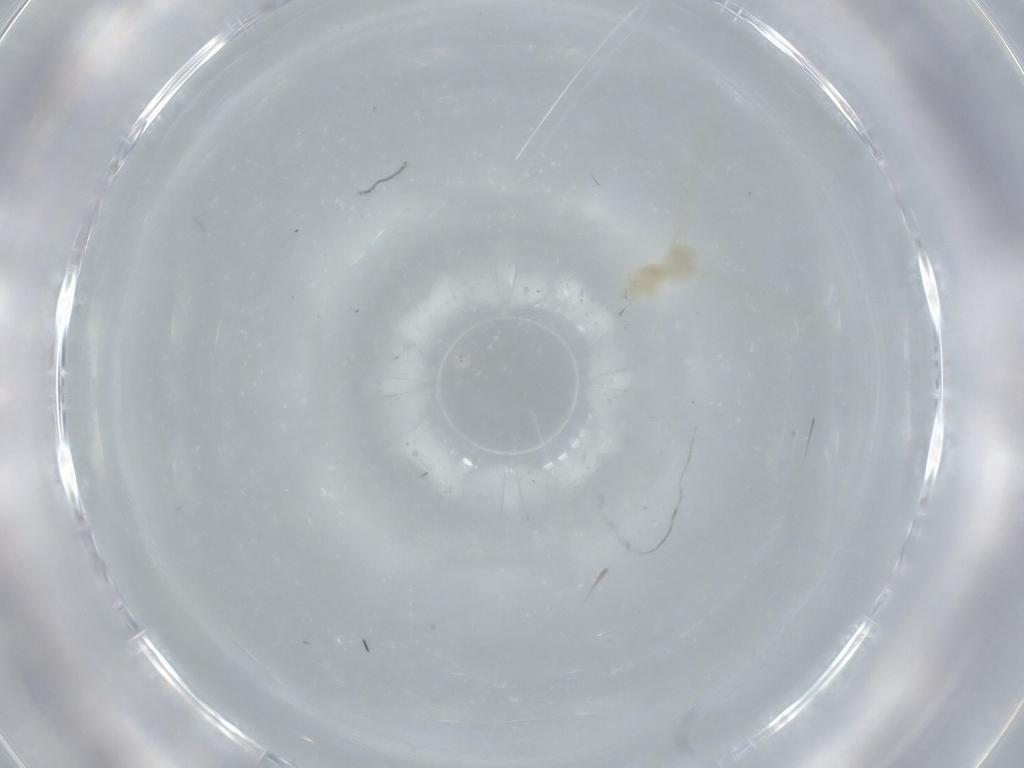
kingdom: Animalia
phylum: Arthropoda
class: Insecta
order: Diptera
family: Cecidomyiidae
